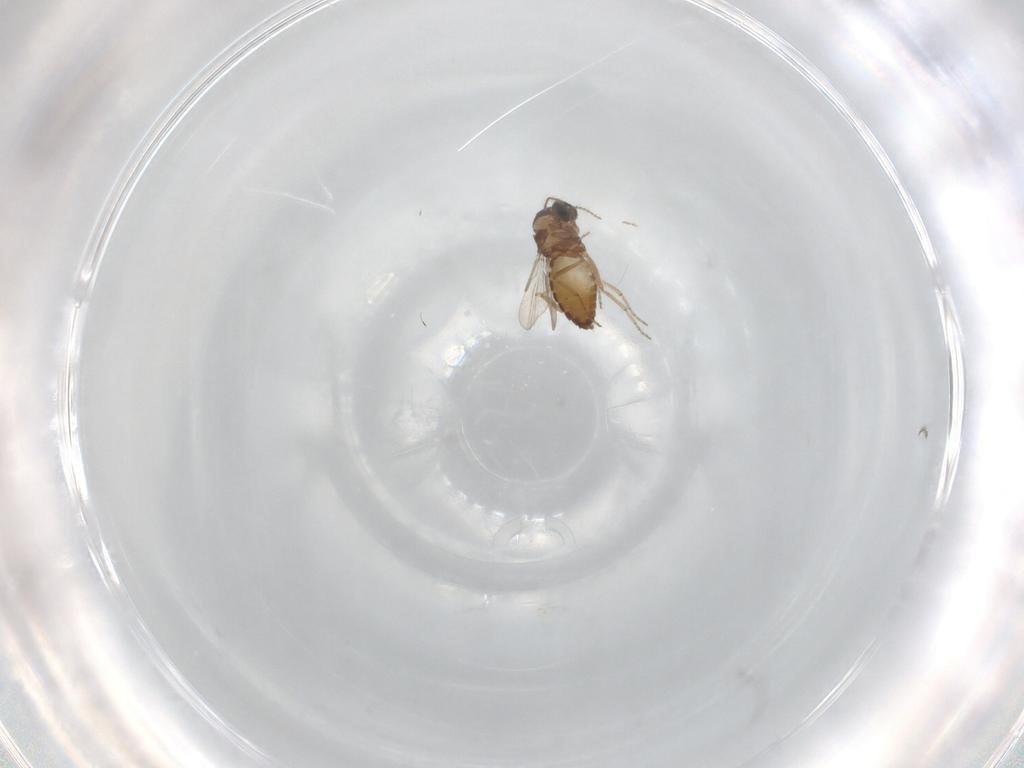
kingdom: Animalia
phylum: Arthropoda
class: Insecta
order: Diptera
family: Ceratopogonidae
